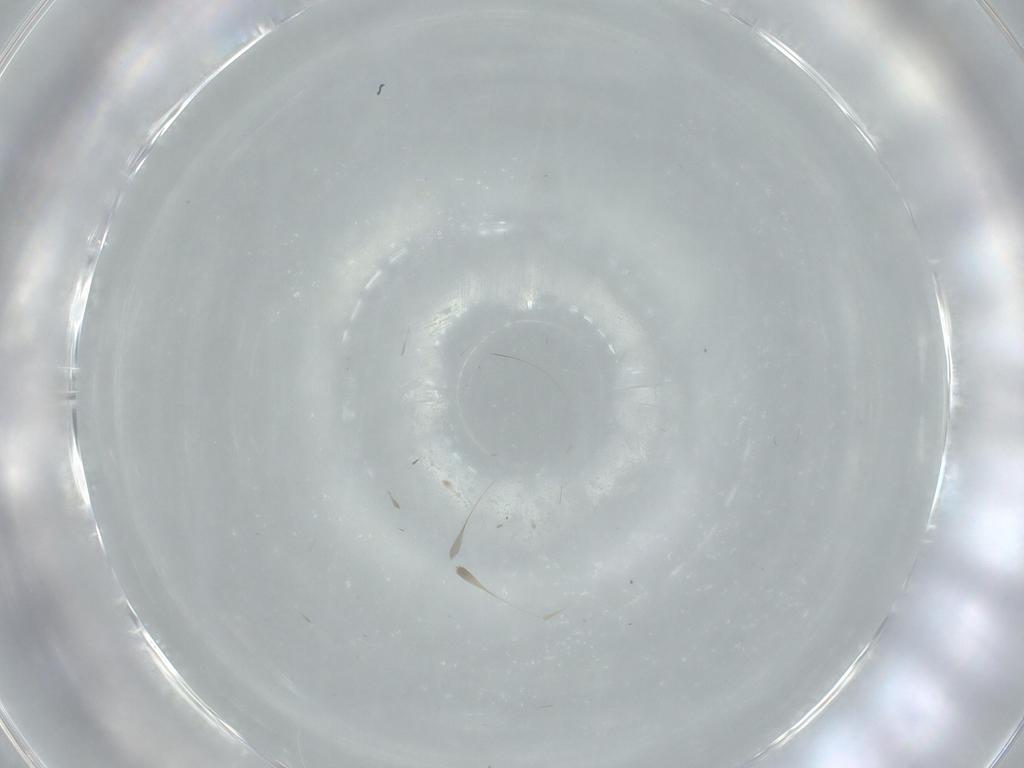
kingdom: Animalia
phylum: Arthropoda
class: Insecta
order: Diptera
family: Cecidomyiidae
